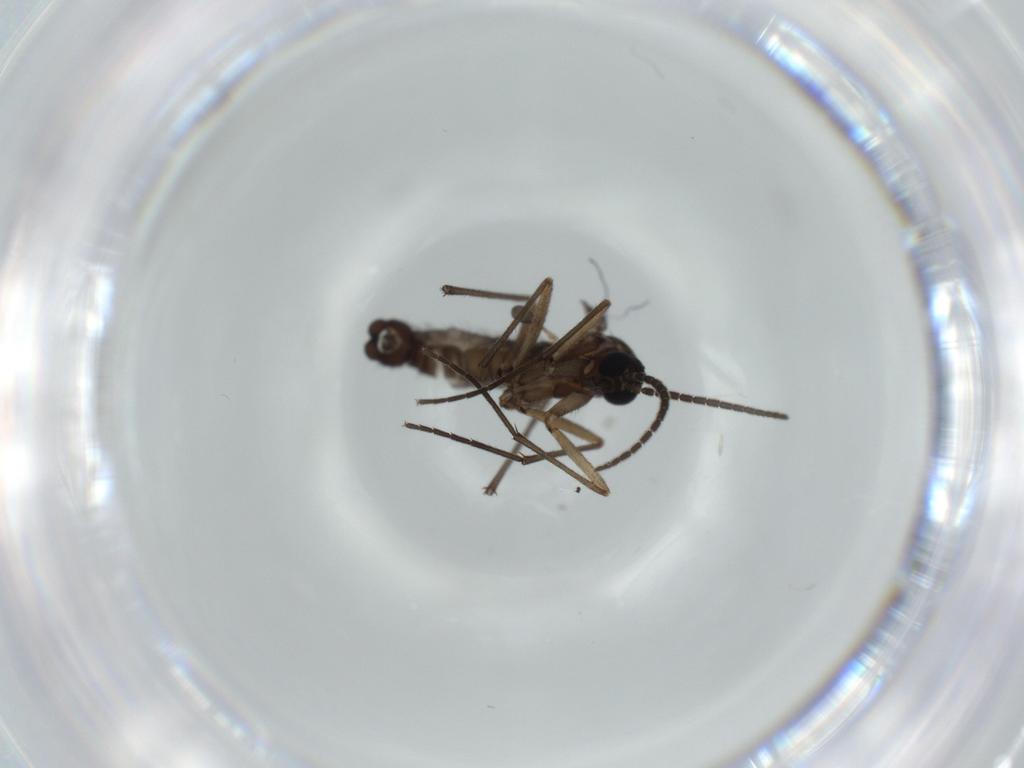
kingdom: Animalia
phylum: Arthropoda
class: Insecta
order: Diptera
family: Sciaridae
